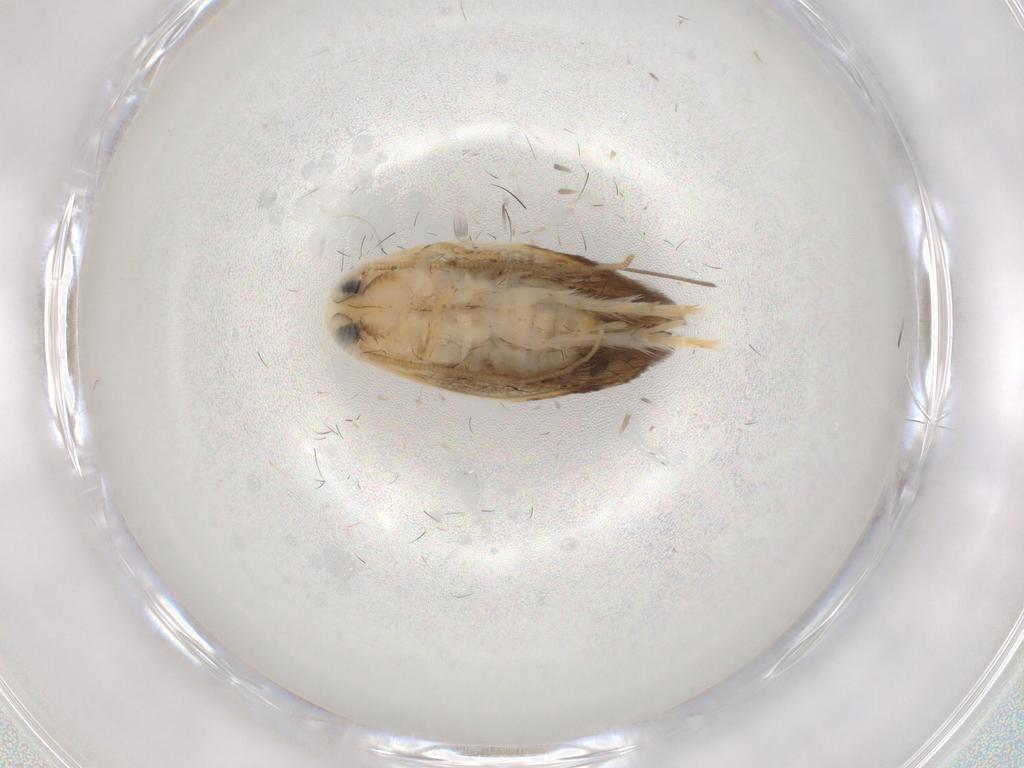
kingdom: Animalia
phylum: Arthropoda
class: Insecta
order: Lepidoptera
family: Opostegidae
